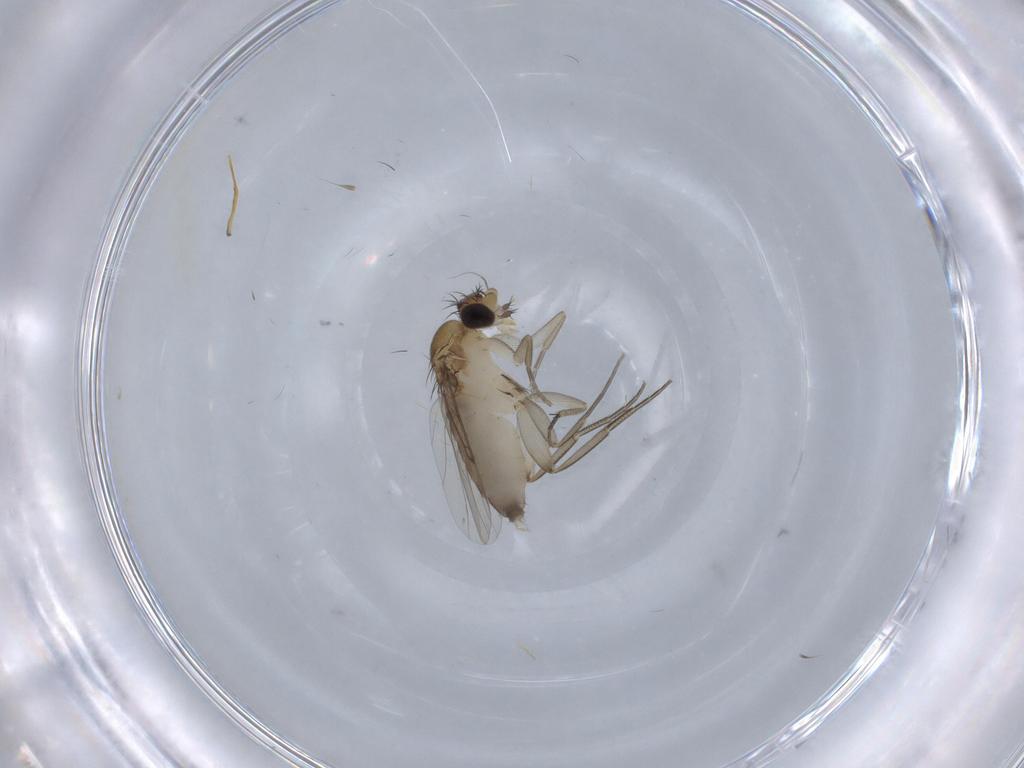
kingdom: Animalia
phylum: Arthropoda
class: Insecta
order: Diptera
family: Phoridae
